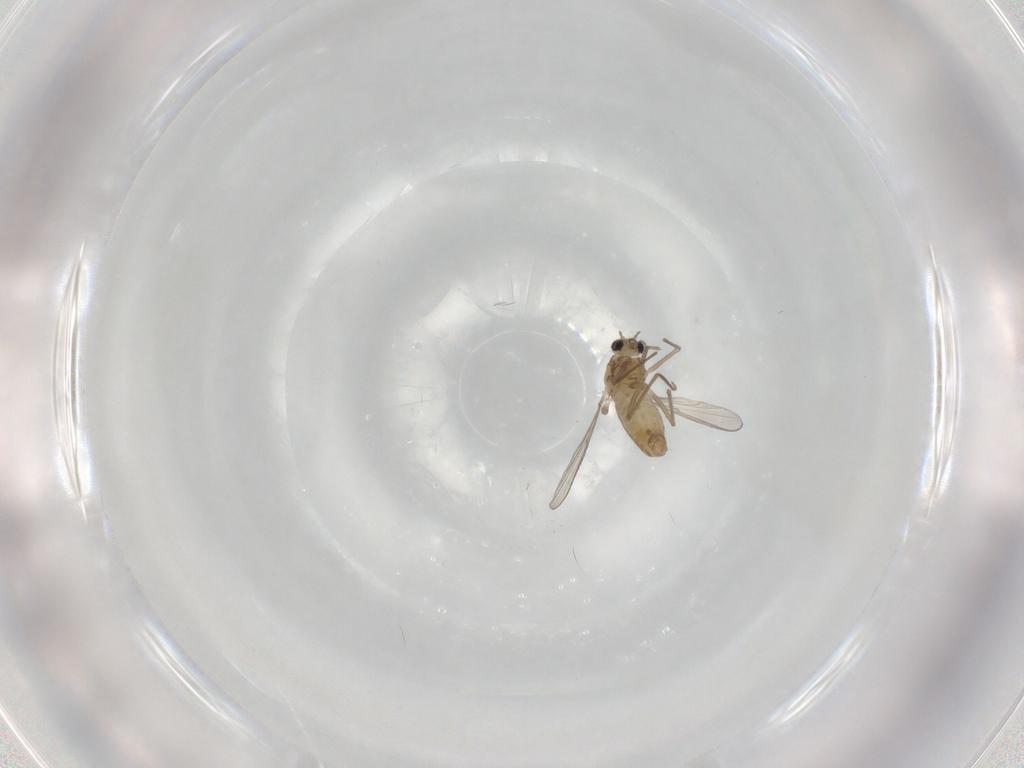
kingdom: Animalia
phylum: Arthropoda
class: Insecta
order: Diptera
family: Chironomidae
